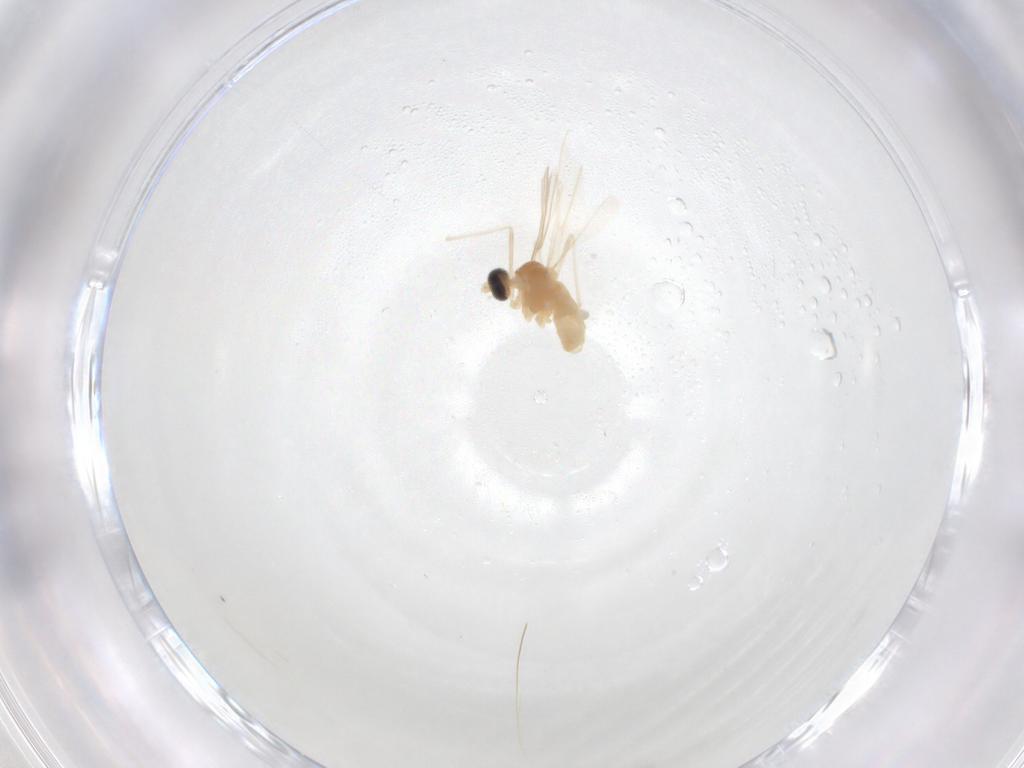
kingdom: Animalia
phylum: Arthropoda
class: Insecta
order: Diptera
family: Cecidomyiidae
